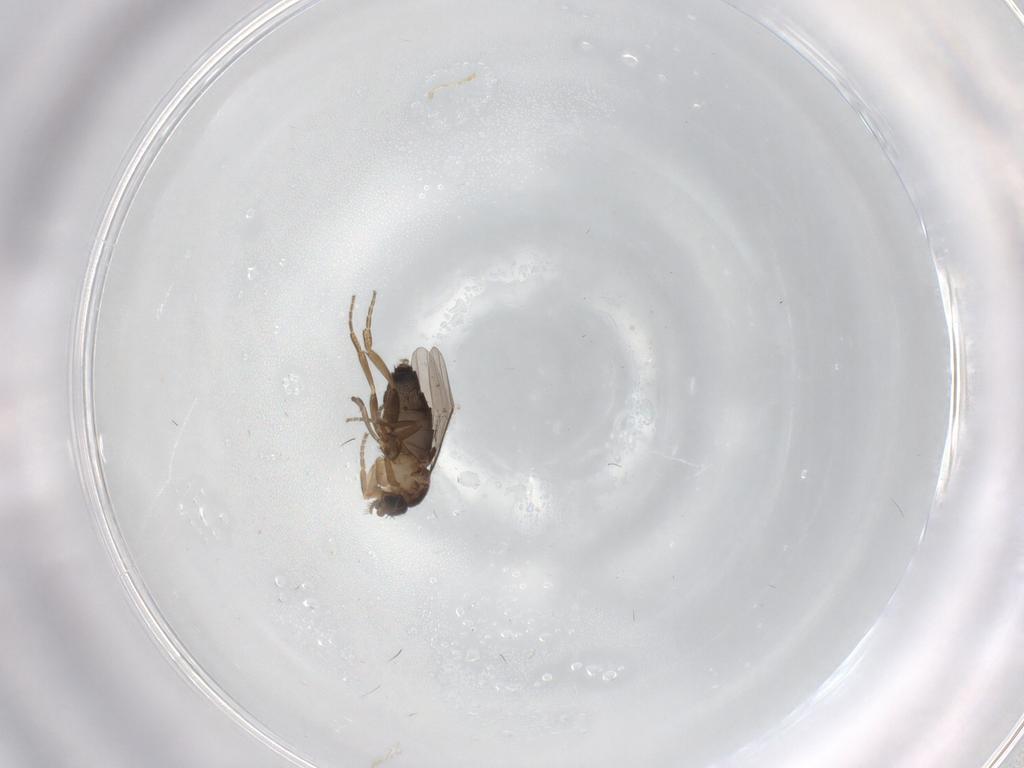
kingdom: Animalia
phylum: Arthropoda
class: Insecta
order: Diptera
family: Phoridae
